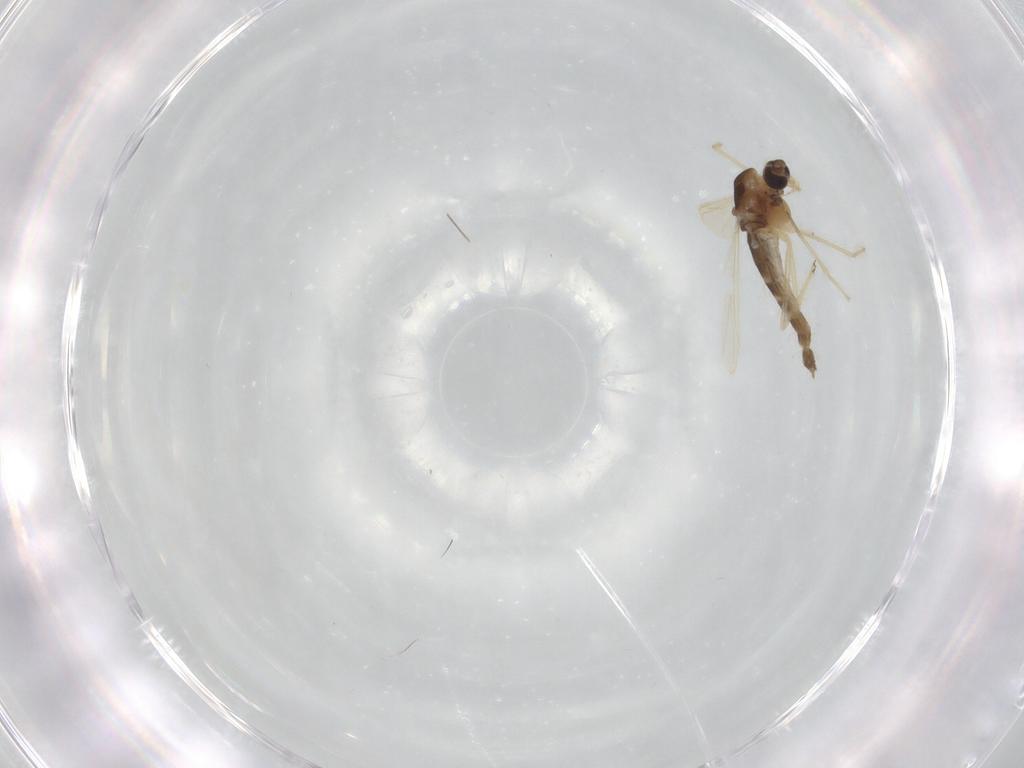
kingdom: Animalia
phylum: Arthropoda
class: Insecta
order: Diptera
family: Chironomidae
